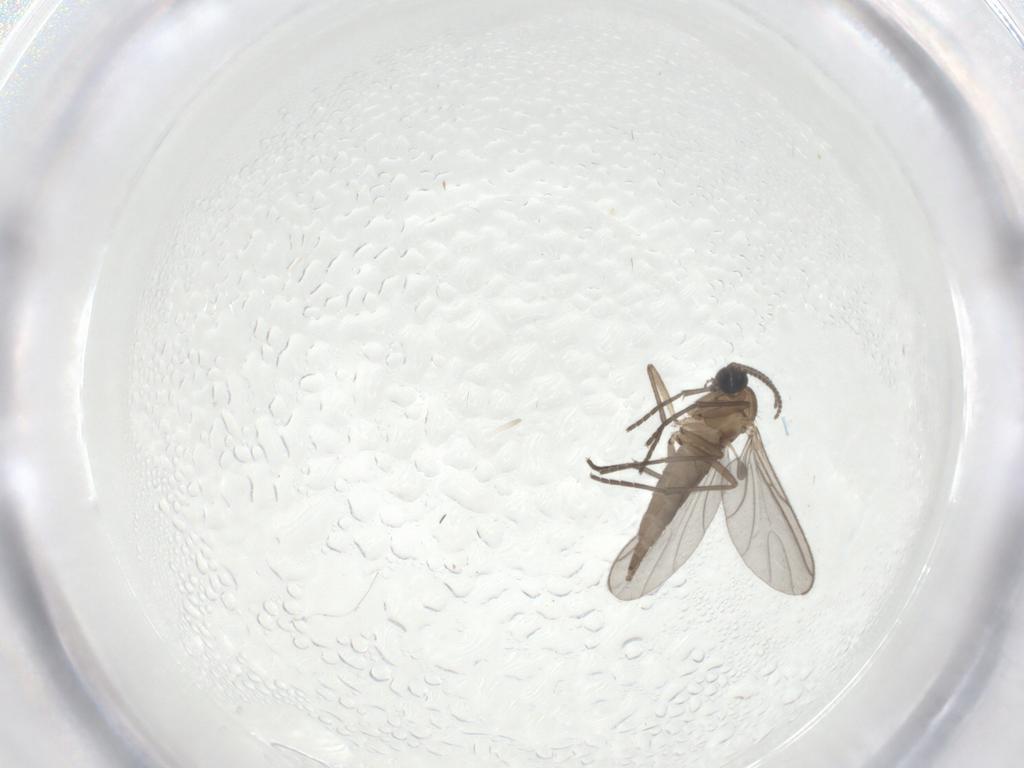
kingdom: Animalia
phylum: Arthropoda
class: Insecta
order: Diptera
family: Sciaridae
